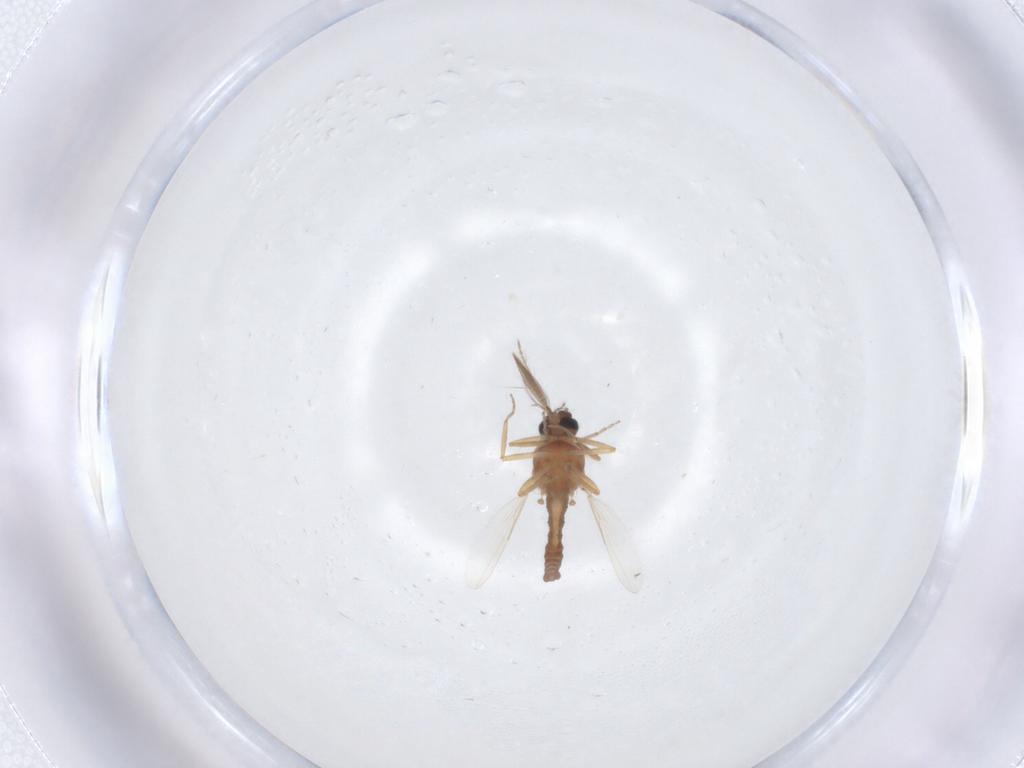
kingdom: Animalia
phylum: Arthropoda
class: Insecta
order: Diptera
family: Ceratopogonidae
